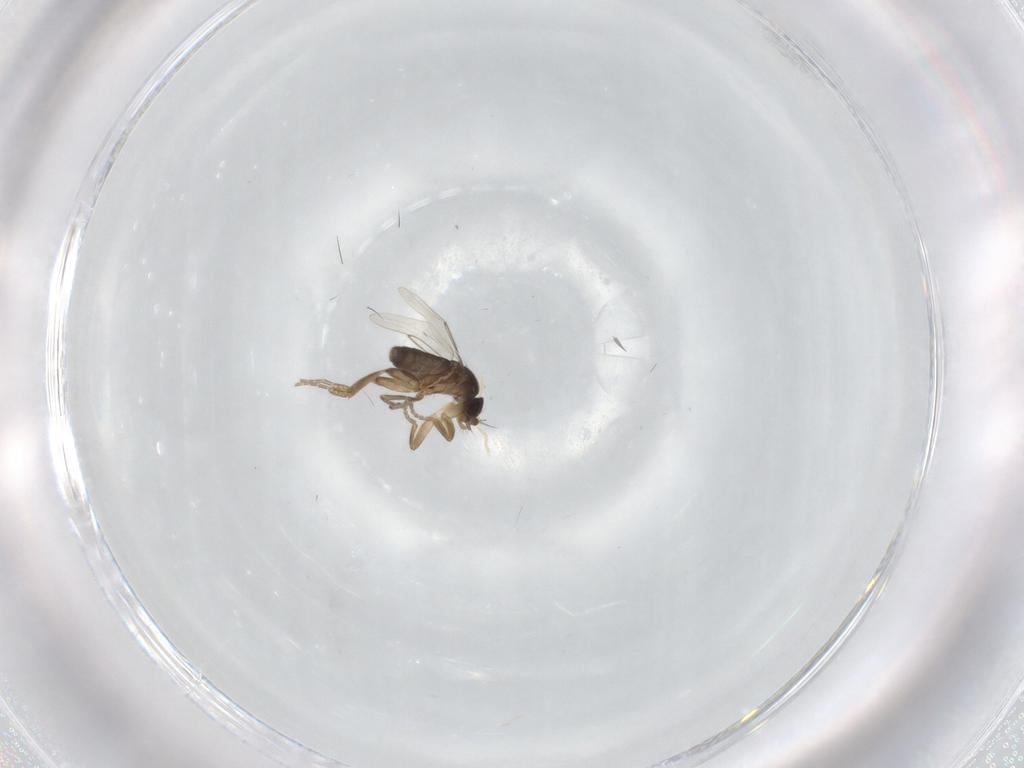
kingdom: Animalia
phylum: Arthropoda
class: Insecta
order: Diptera
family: Phoridae
